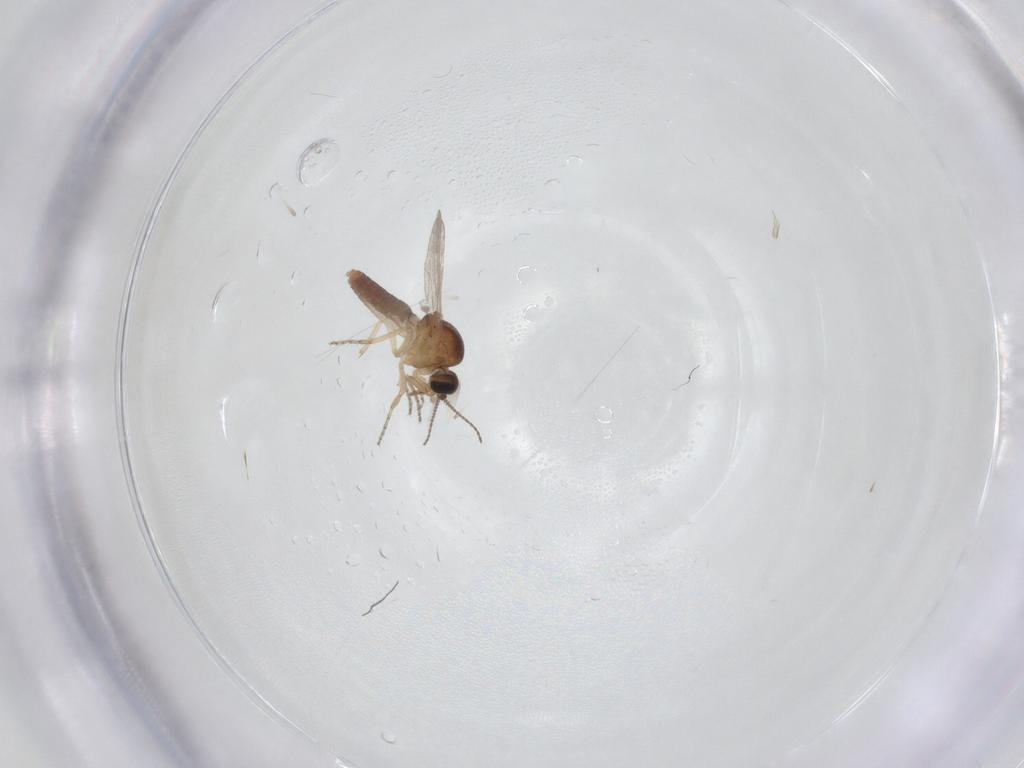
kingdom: Animalia
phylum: Arthropoda
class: Insecta
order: Diptera
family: Ceratopogonidae
